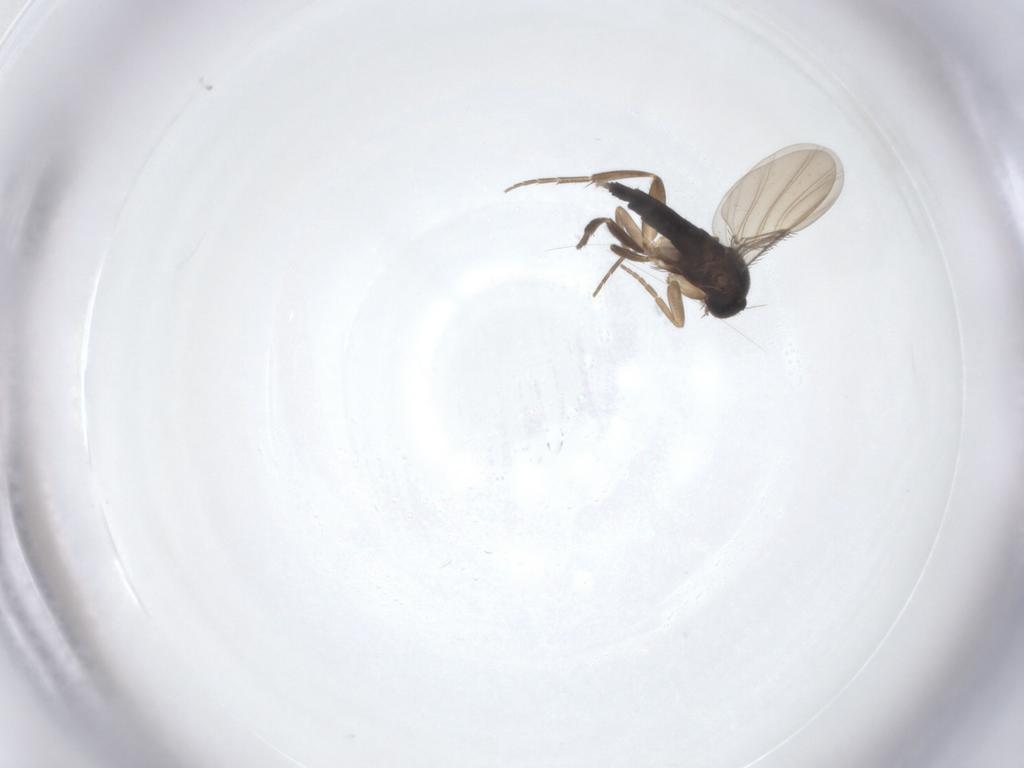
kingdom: Animalia
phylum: Arthropoda
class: Insecta
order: Diptera
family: Phoridae
